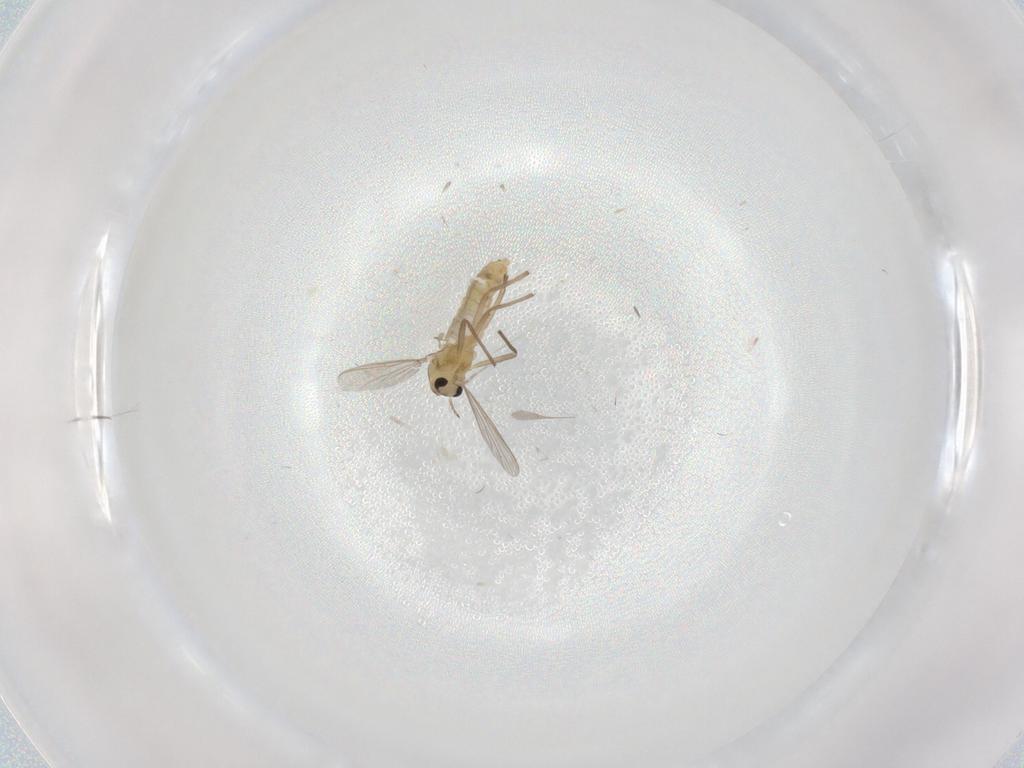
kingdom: Animalia
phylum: Arthropoda
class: Insecta
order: Diptera
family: Chironomidae
